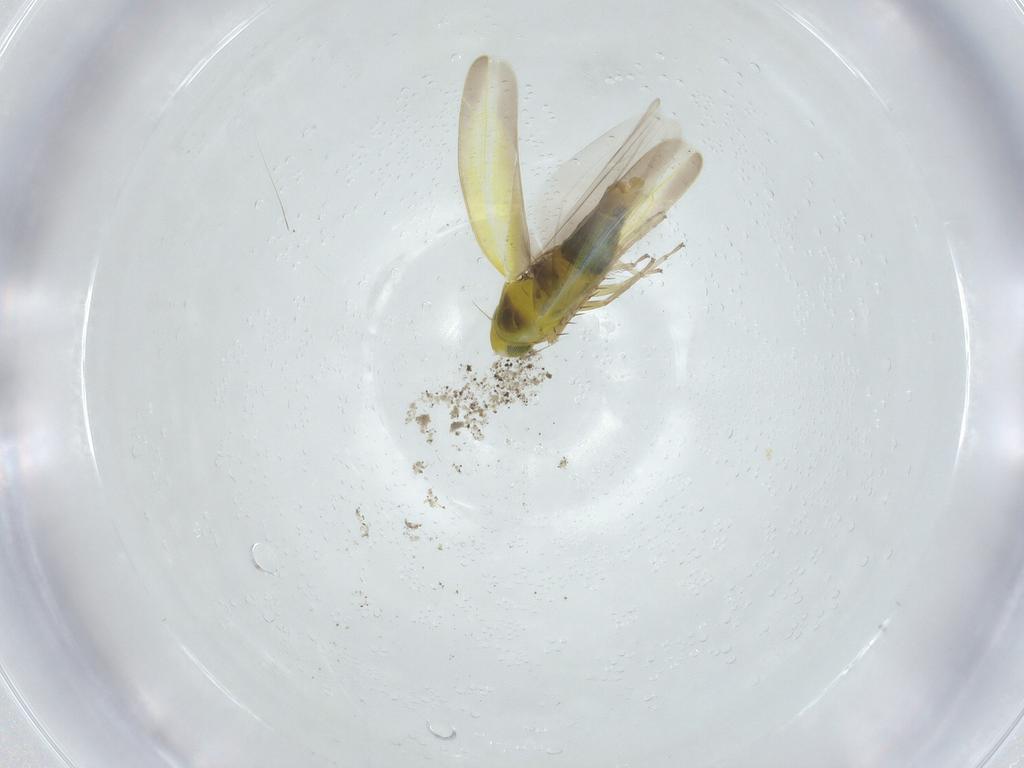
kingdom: Animalia
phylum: Arthropoda
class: Insecta
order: Hemiptera
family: Cicadellidae
